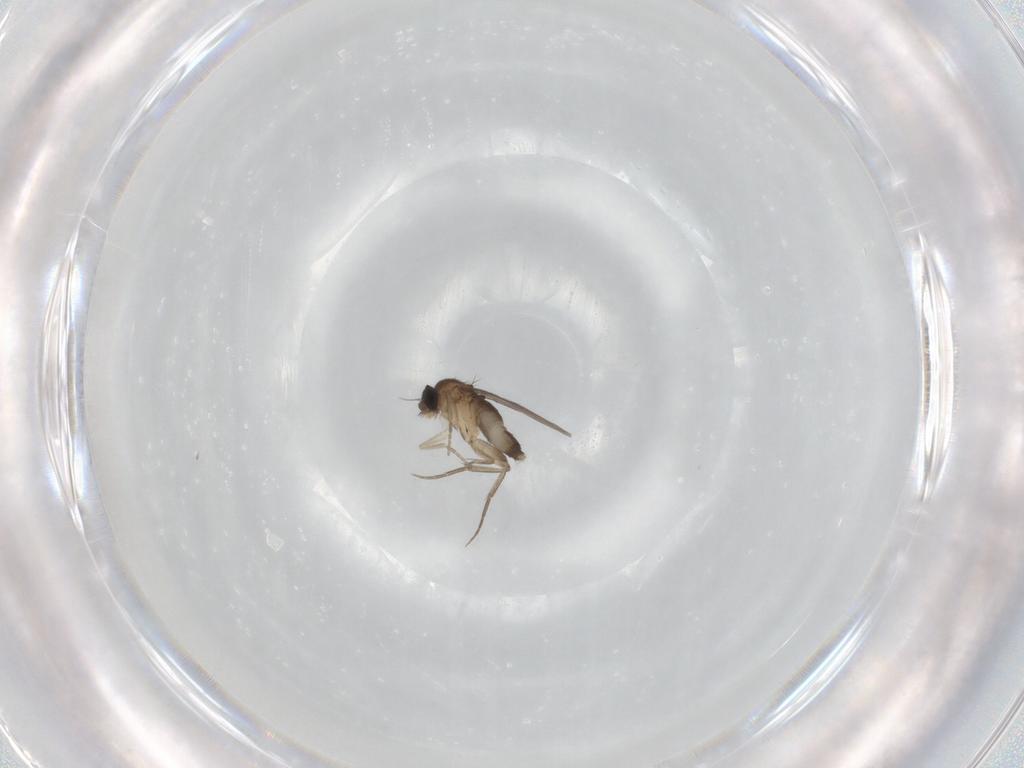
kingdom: Animalia
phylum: Arthropoda
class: Insecta
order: Diptera
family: Phoridae
